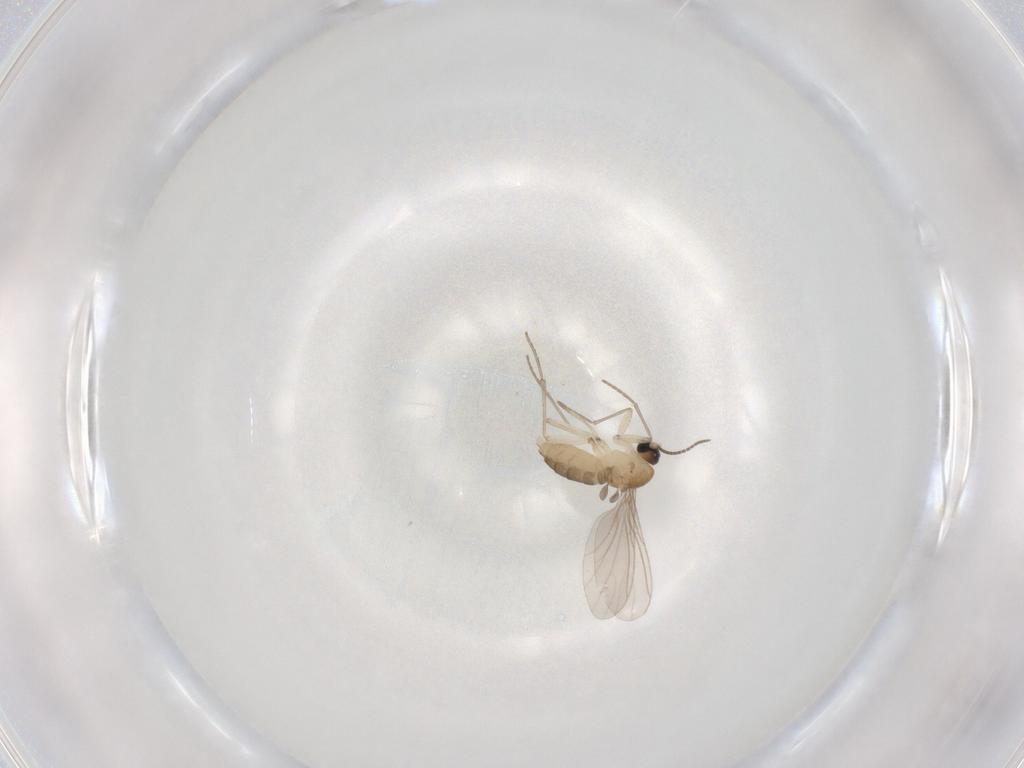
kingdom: Animalia
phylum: Arthropoda
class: Insecta
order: Diptera
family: Sciaridae
